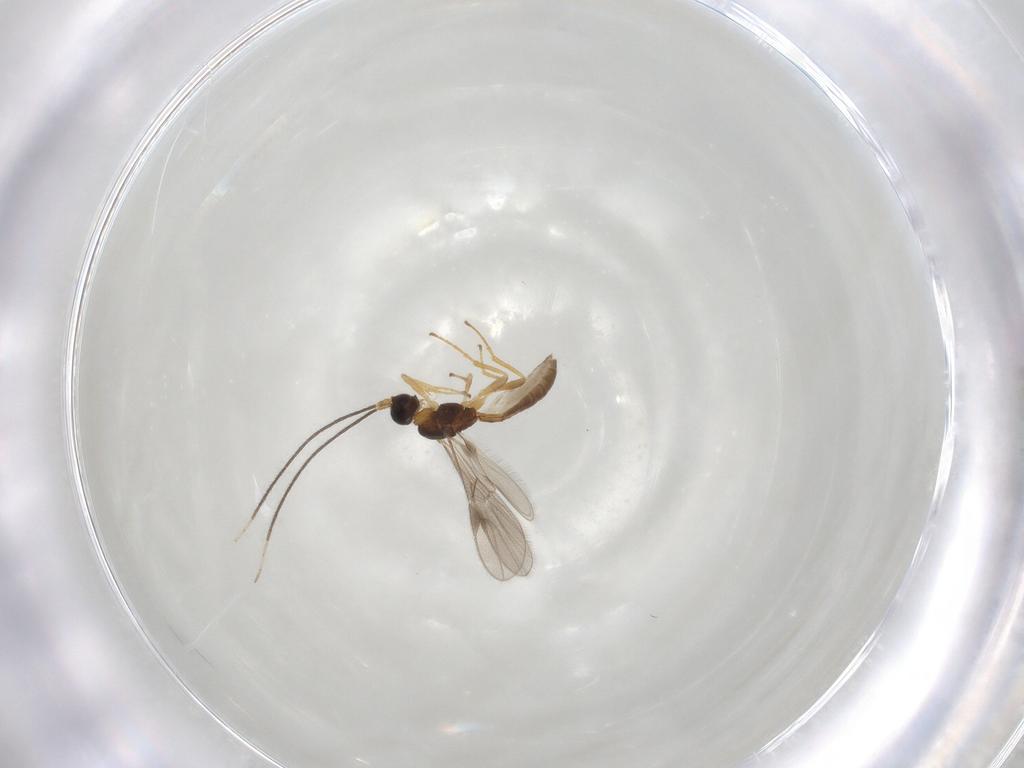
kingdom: Animalia
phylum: Arthropoda
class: Insecta
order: Hymenoptera
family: Braconidae
